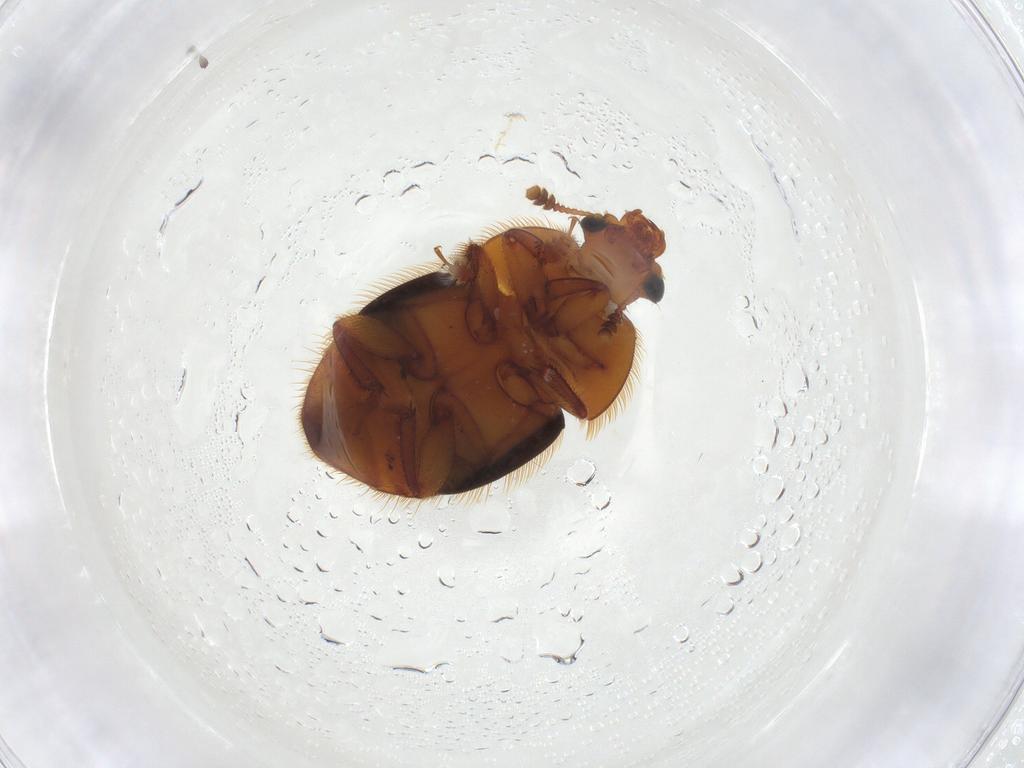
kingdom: Animalia
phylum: Arthropoda
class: Insecta
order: Coleoptera
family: Nitidulidae
